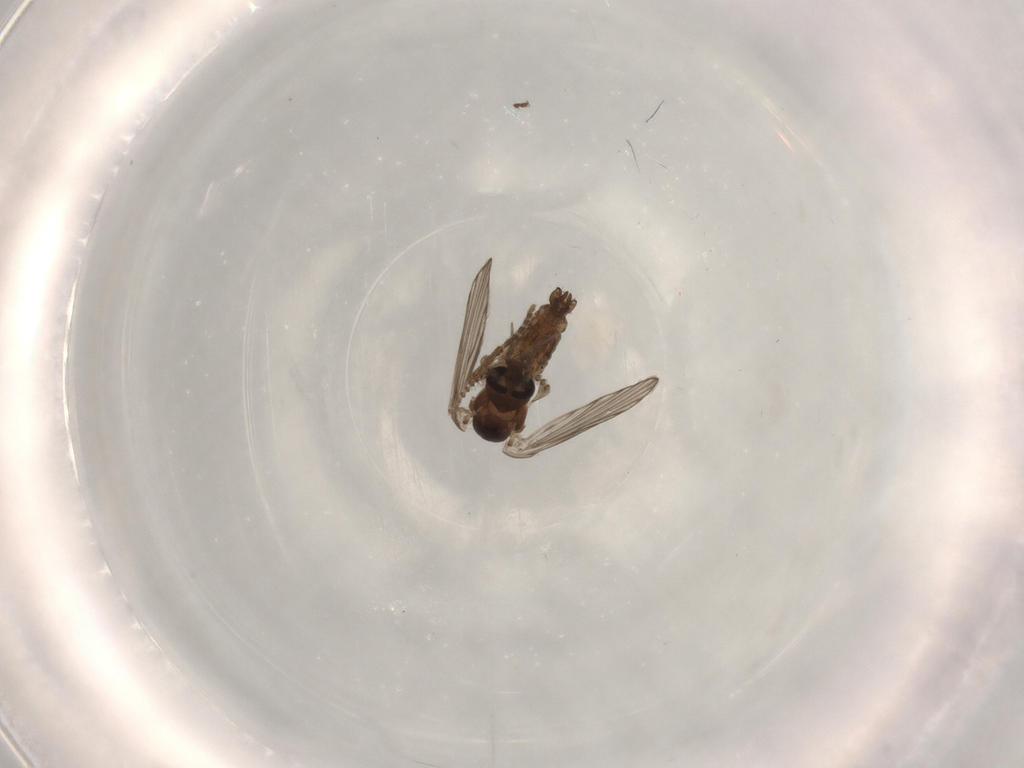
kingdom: Animalia
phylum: Arthropoda
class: Insecta
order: Diptera
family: Psychodidae
